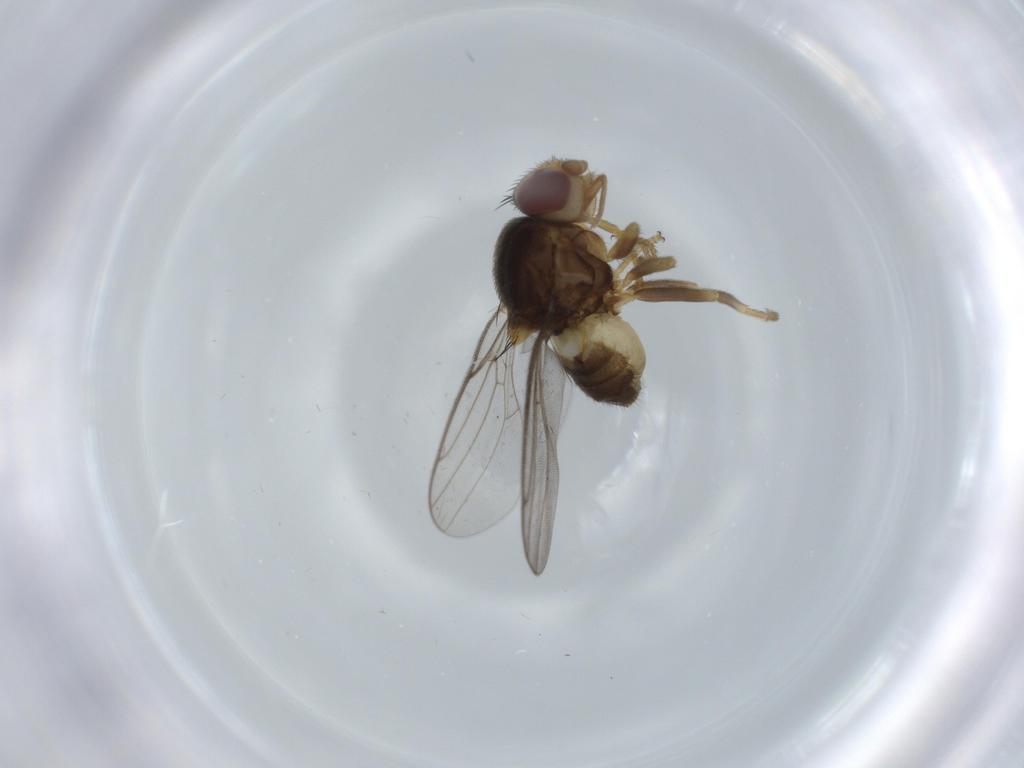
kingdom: Animalia
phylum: Arthropoda
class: Insecta
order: Diptera
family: Chloropidae
